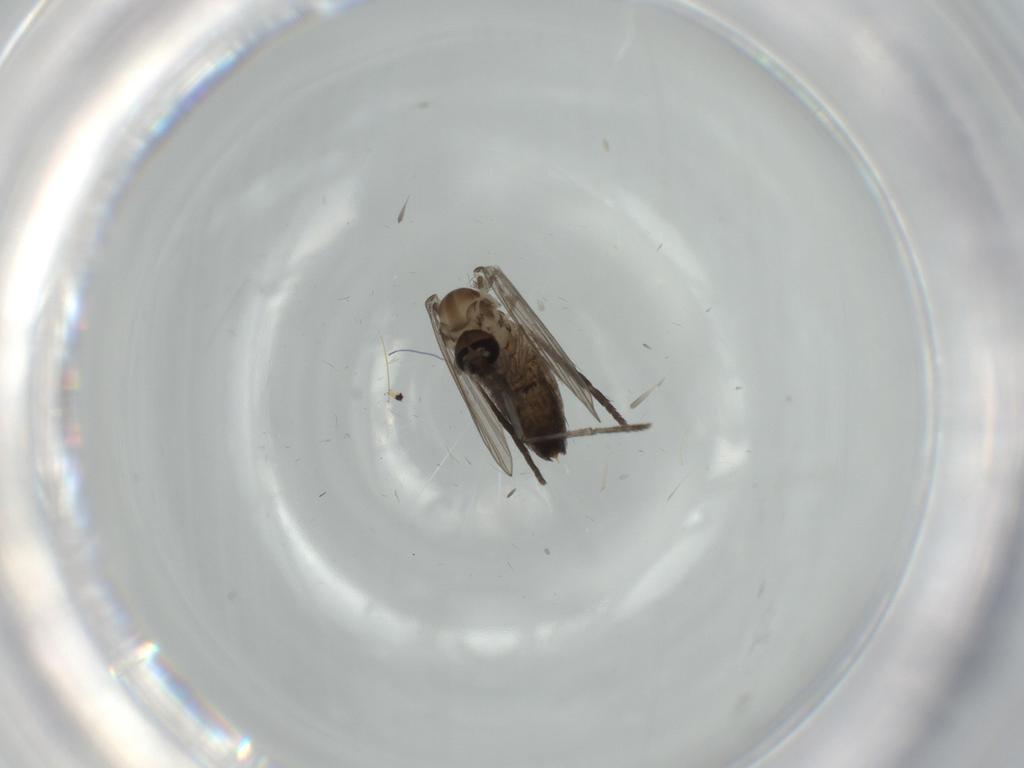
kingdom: Animalia
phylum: Arthropoda
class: Insecta
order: Diptera
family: Psychodidae
